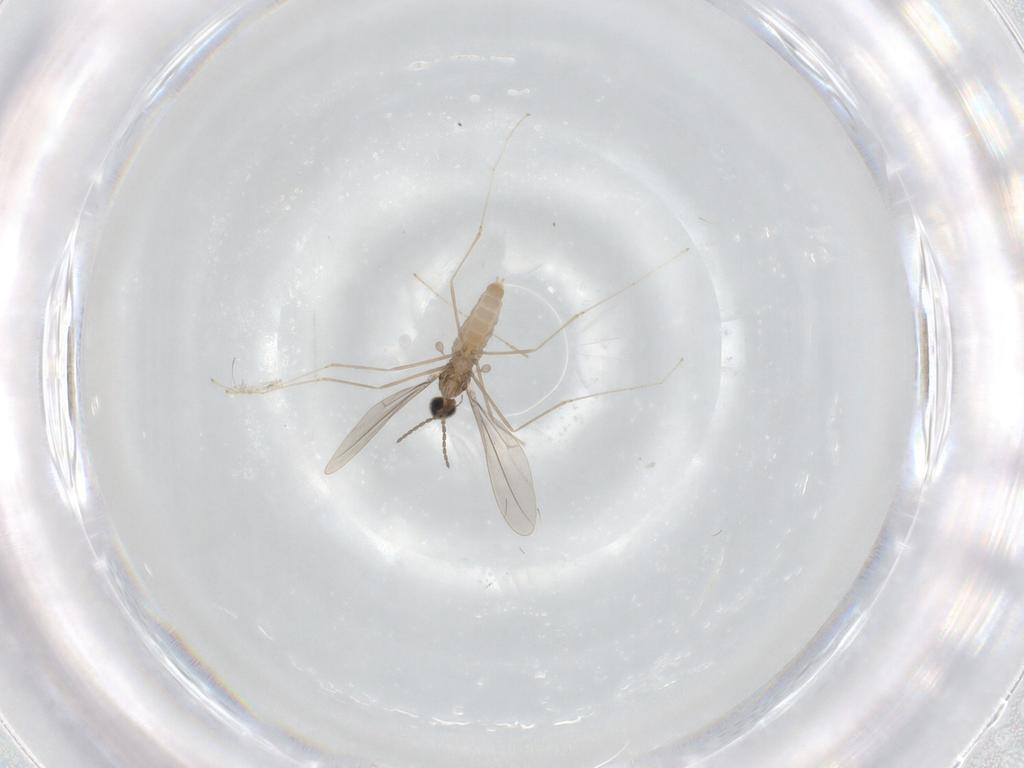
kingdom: Animalia
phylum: Arthropoda
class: Insecta
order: Diptera
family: Cecidomyiidae
